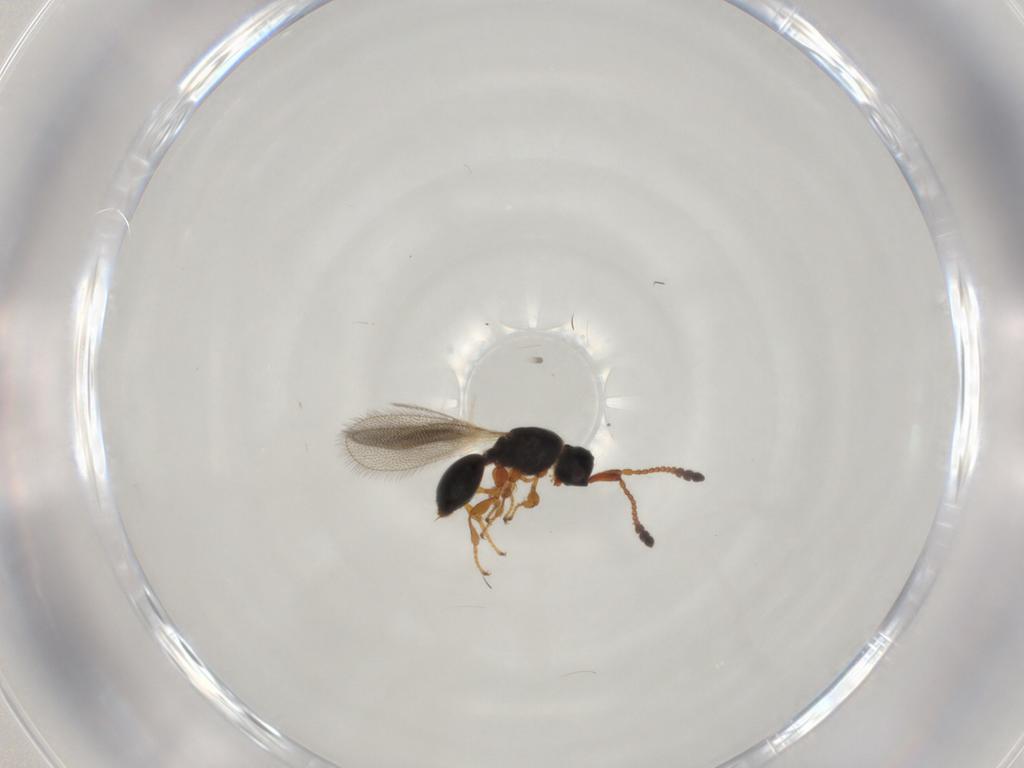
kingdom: Animalia
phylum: Arthropoda
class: Insecta
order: Hymenoptera
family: Diapriidae
